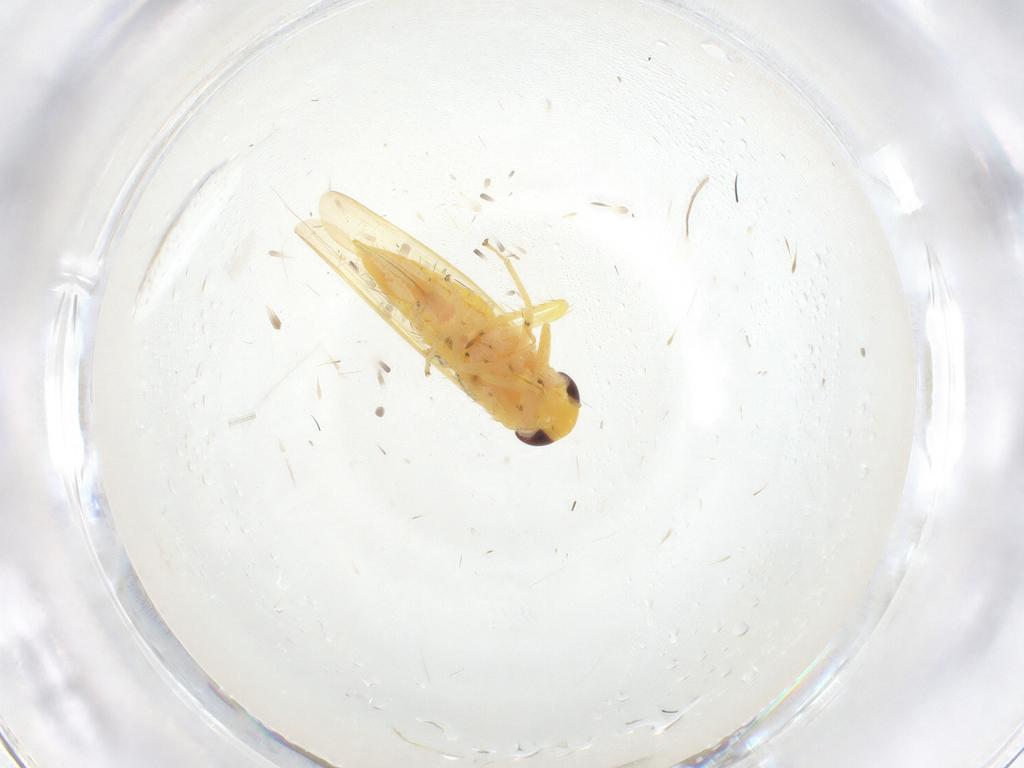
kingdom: Animalia
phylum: Arthropoda
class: Insecta
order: Hemiptera
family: Cicadellidae
